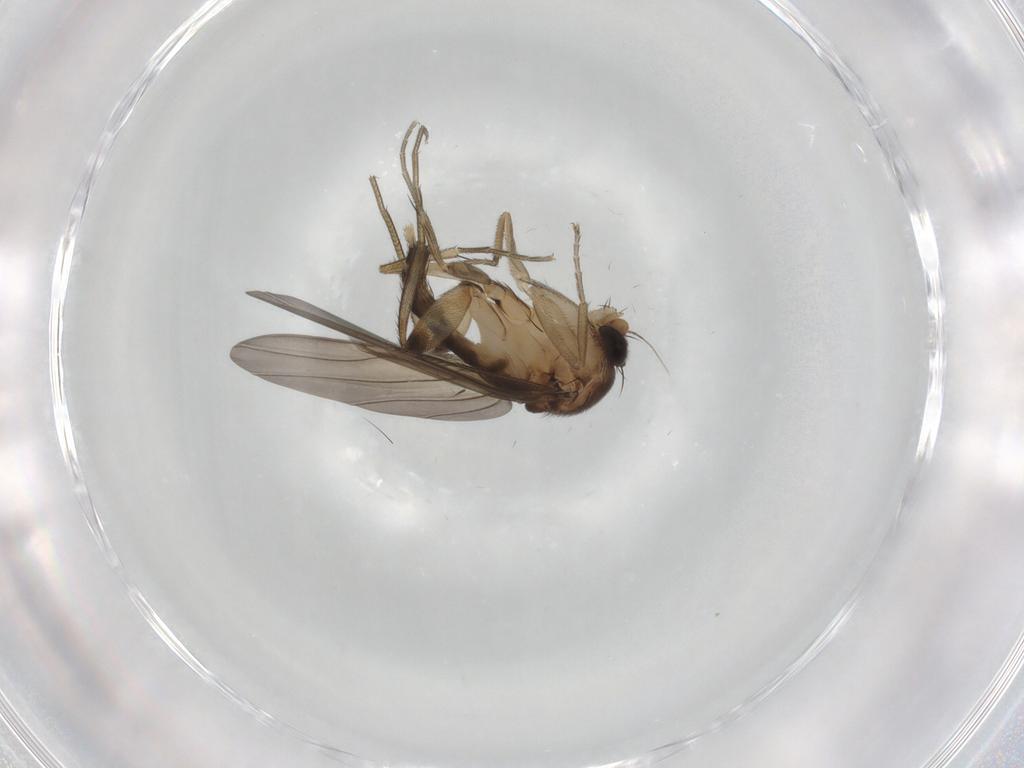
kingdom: Animalia
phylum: Arthropoda
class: Insecta
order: Diptera
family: Phoridae
